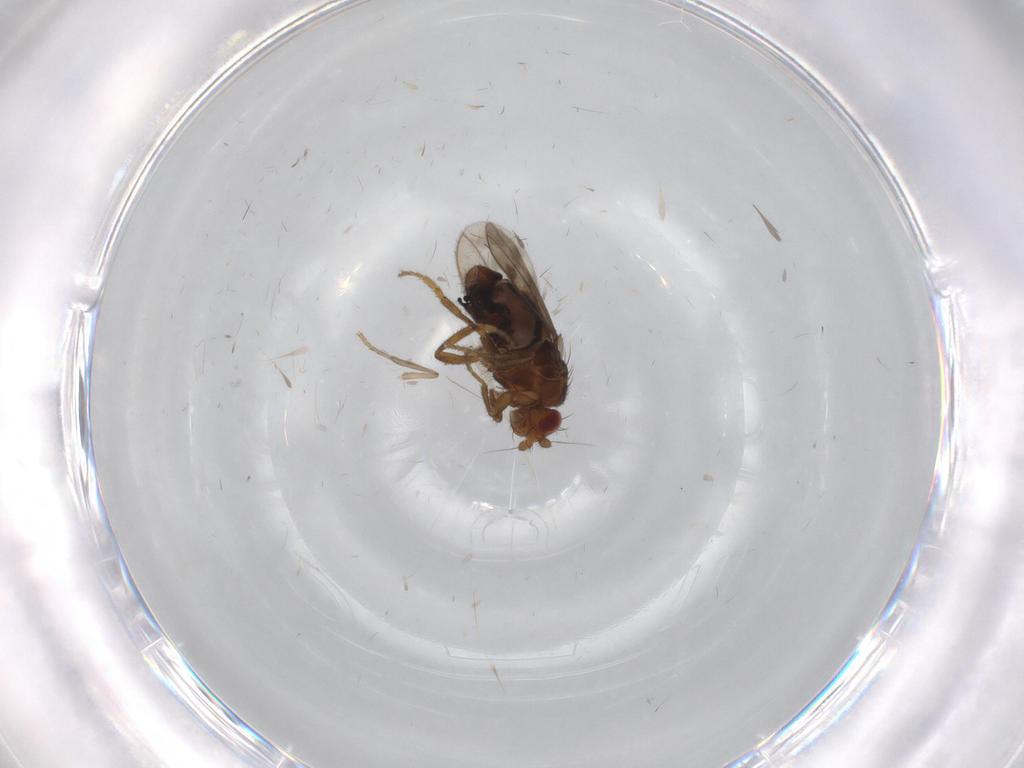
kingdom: Animalia
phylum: Arthropoda
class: Insecta
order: Diptera
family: Sphaeroceridae
